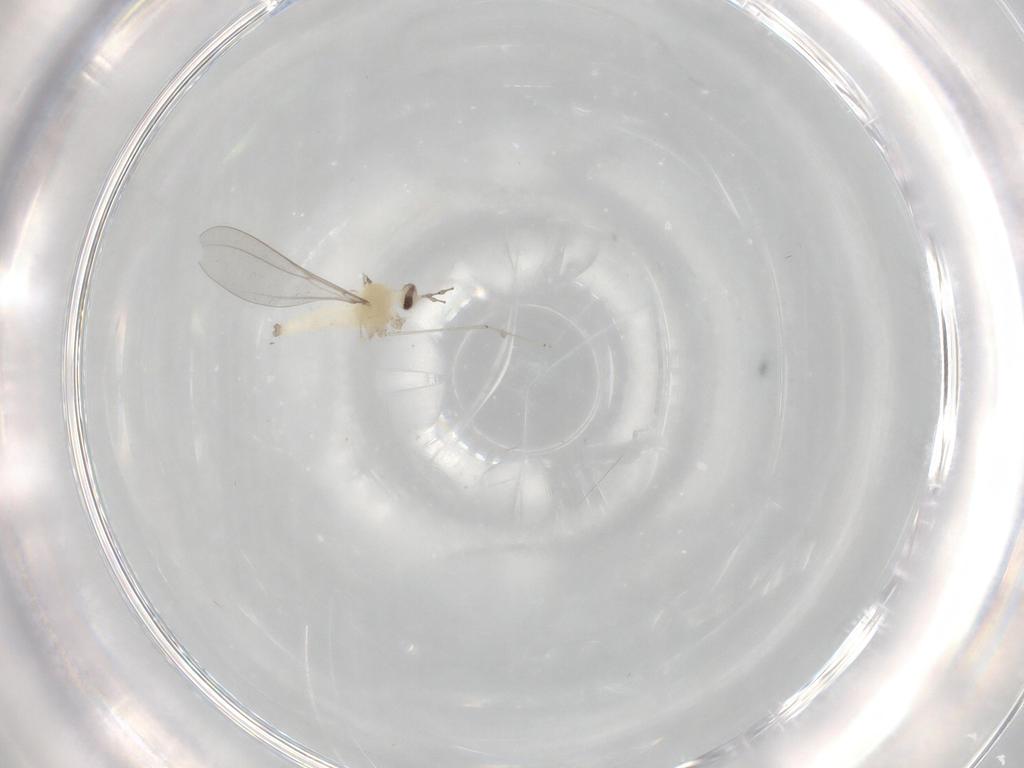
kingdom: Animalia
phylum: Arthropoda
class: Insecta
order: Diptera
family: Cecidomyiidae
